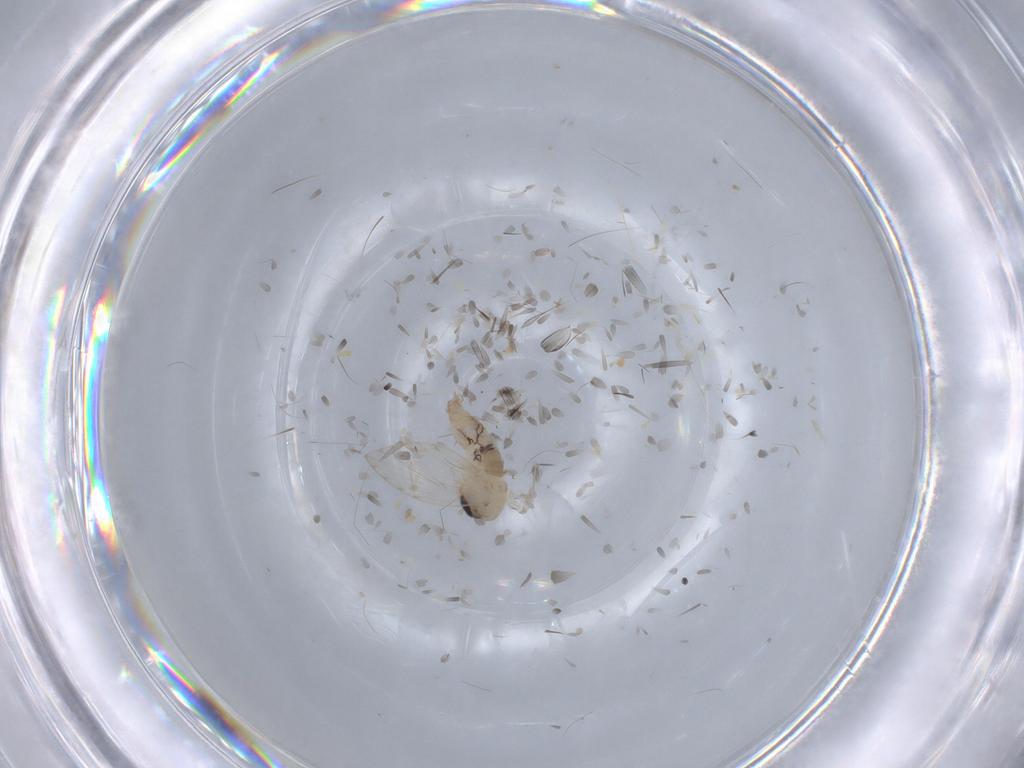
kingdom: Animalia
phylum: Arthropoda
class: Insecta
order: Diptera
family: Psychodidae
